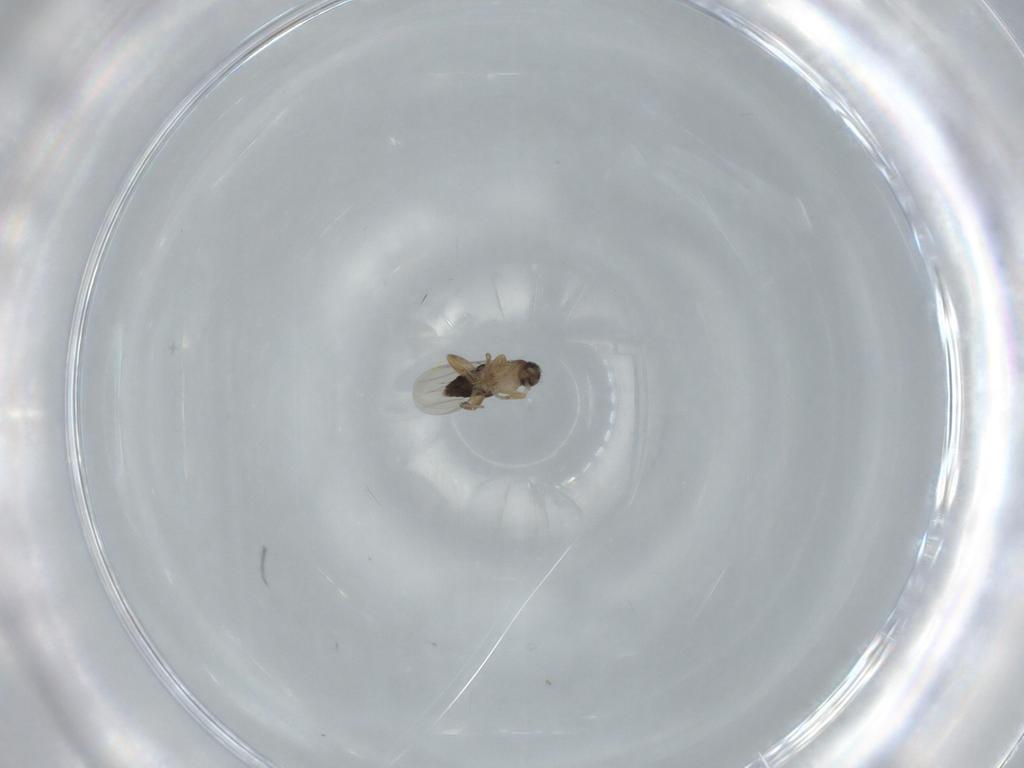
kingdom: Animalia
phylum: Arthropoda
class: Insecta
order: Diptera
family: Phoridae
